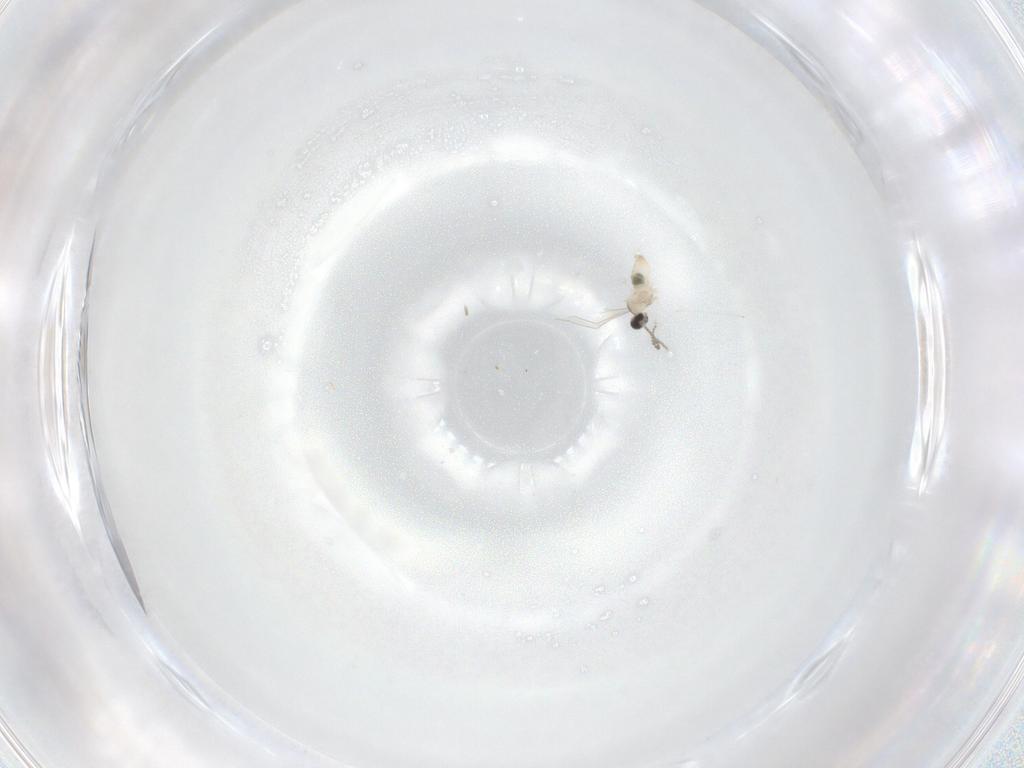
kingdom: Animalia
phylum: Arthropoda
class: Insecta
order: Diptera
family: Cecidomyiidae
